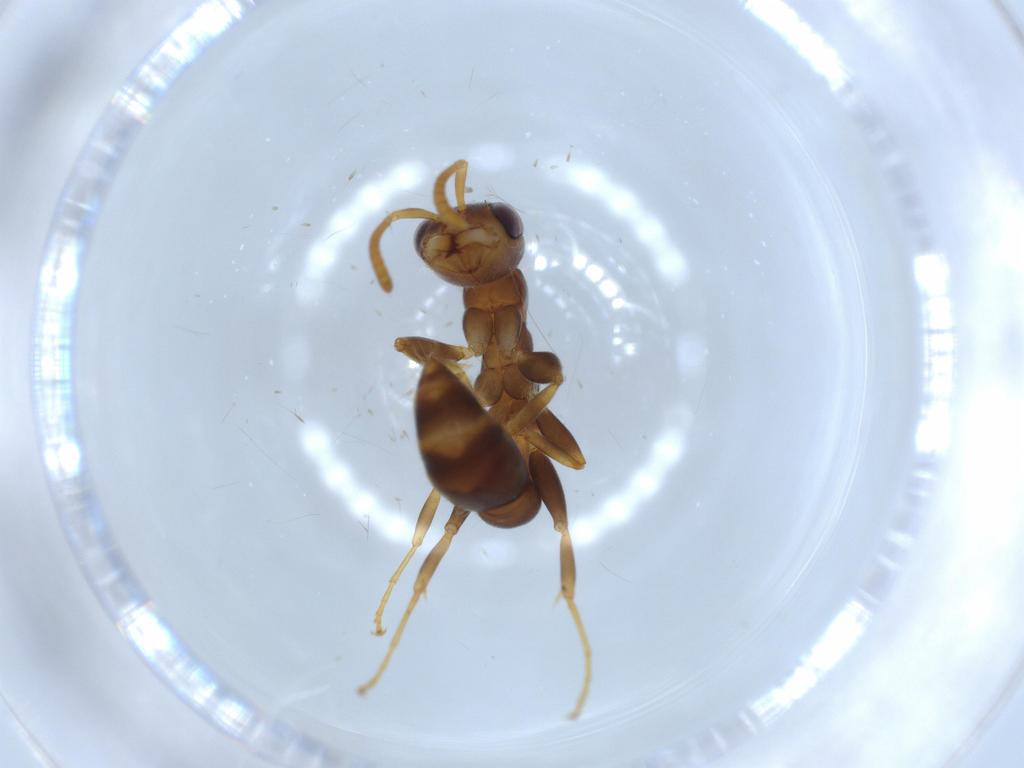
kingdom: Animalia
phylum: Arthropoda
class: Insecta
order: Hymenoptera
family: Formicidae
